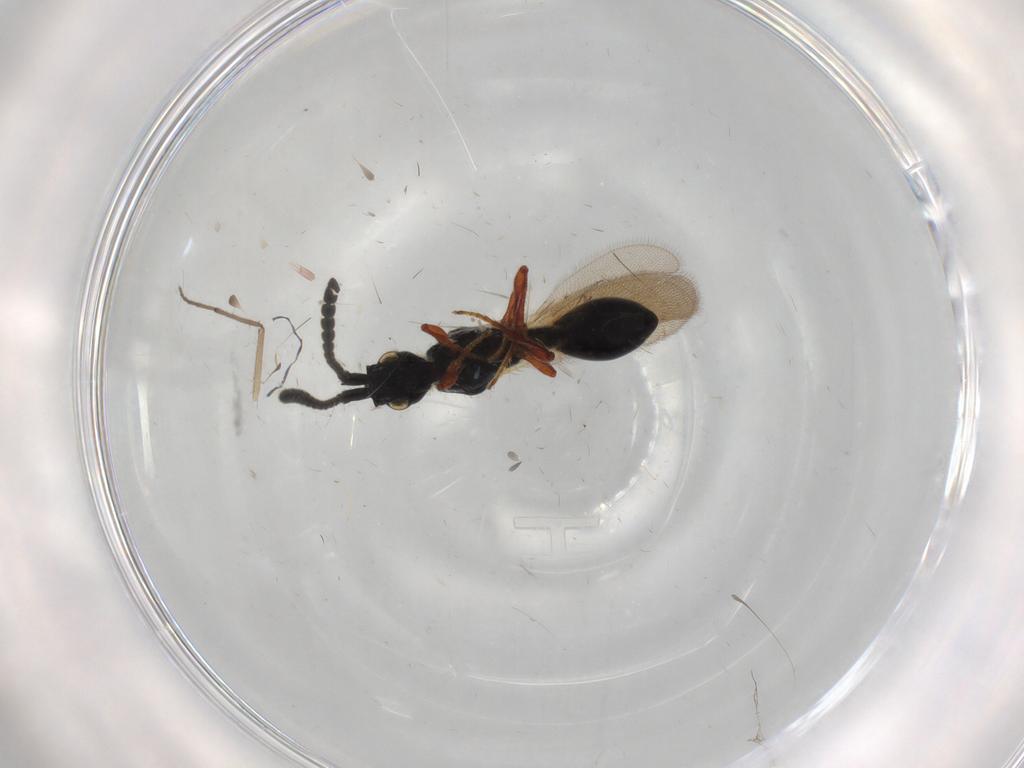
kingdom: Animalia
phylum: Arthropoda
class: Insecta
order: Hymenoptera
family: Diapriidae
